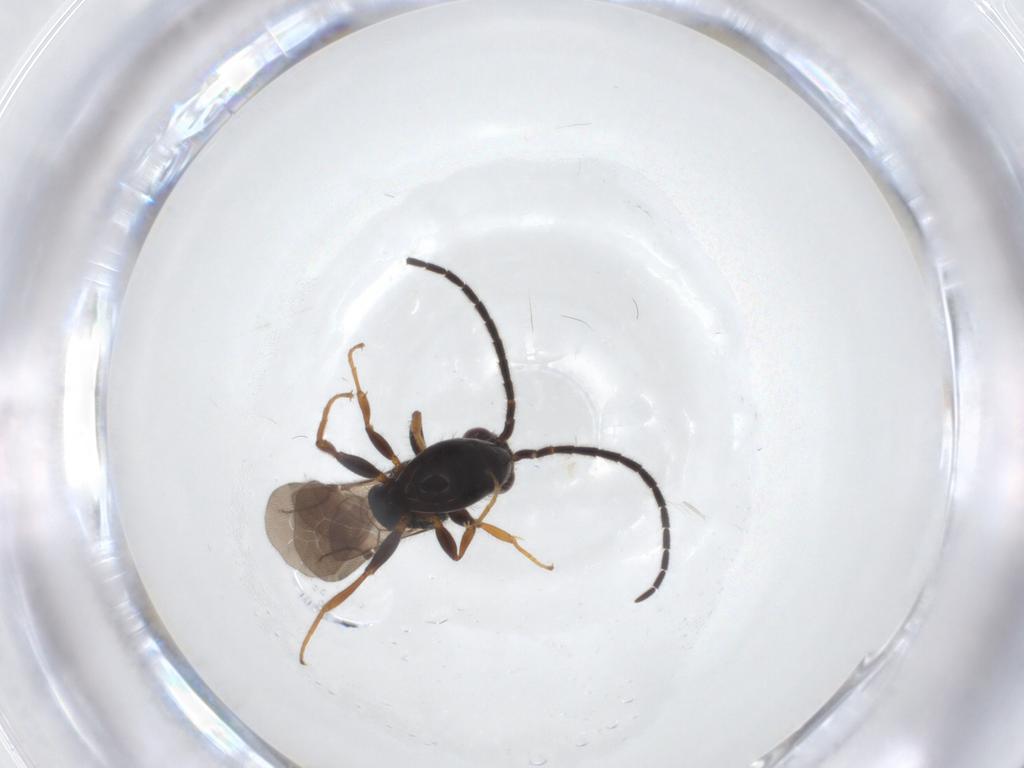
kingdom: Animalia
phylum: Arthropoda
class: Insecta
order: Hymenoptera
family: Bethylidae
